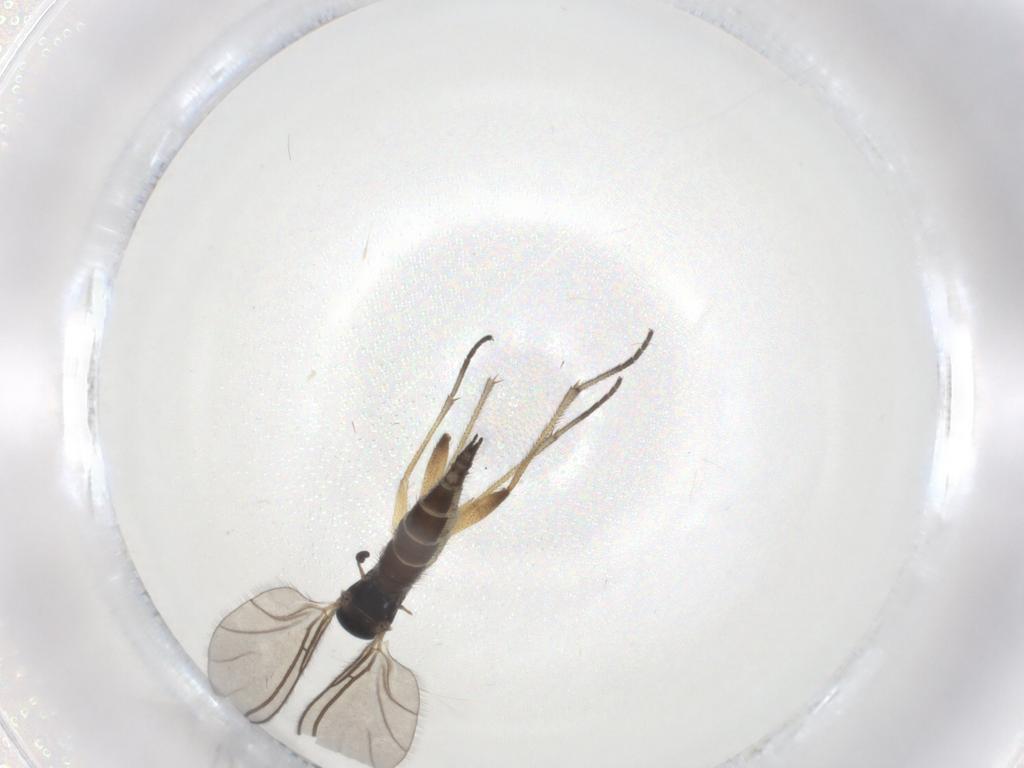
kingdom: Animalia
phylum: Arthropoda
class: Insecta
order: Diptera
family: Sciaridae
